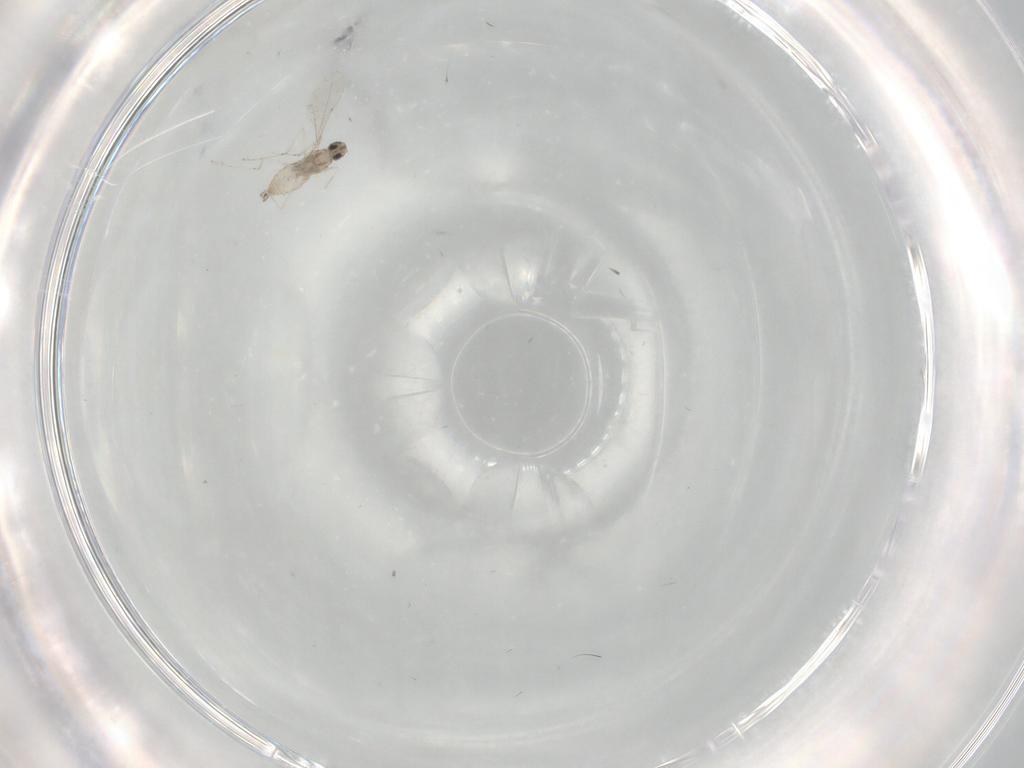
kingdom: Animalia
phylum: Arthropoda
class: Insecta
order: Diptera
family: Cecidomyiidae
